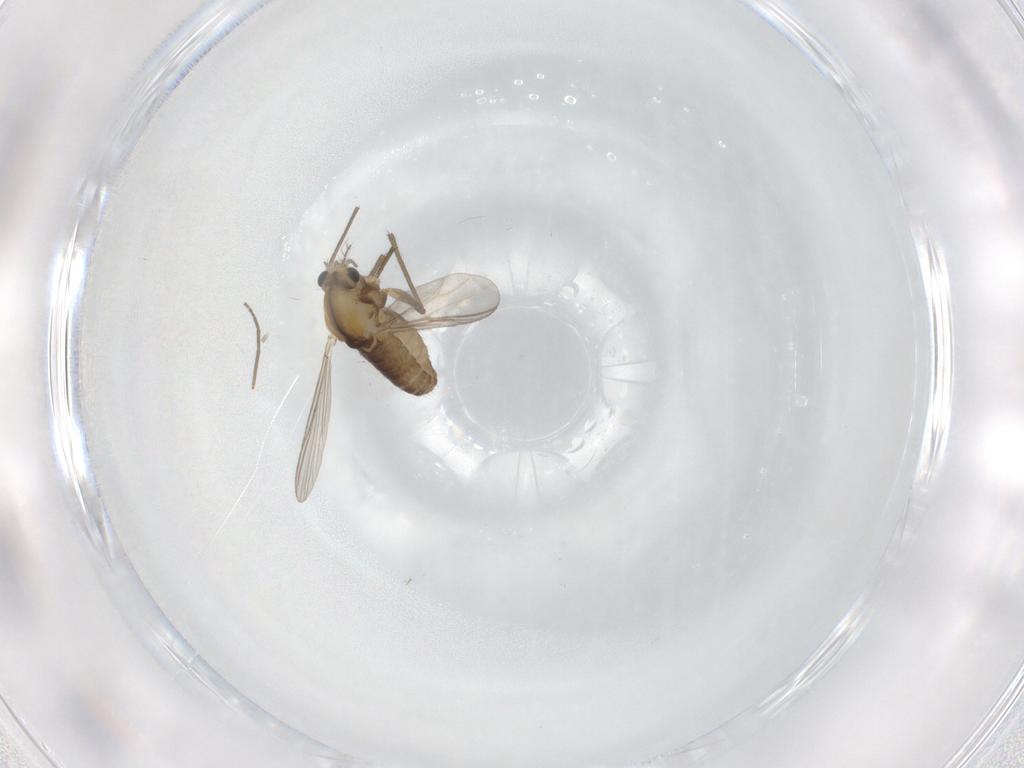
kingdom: Animalia
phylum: Arthropoda
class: Insecta
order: Diptera
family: Chironomidae
